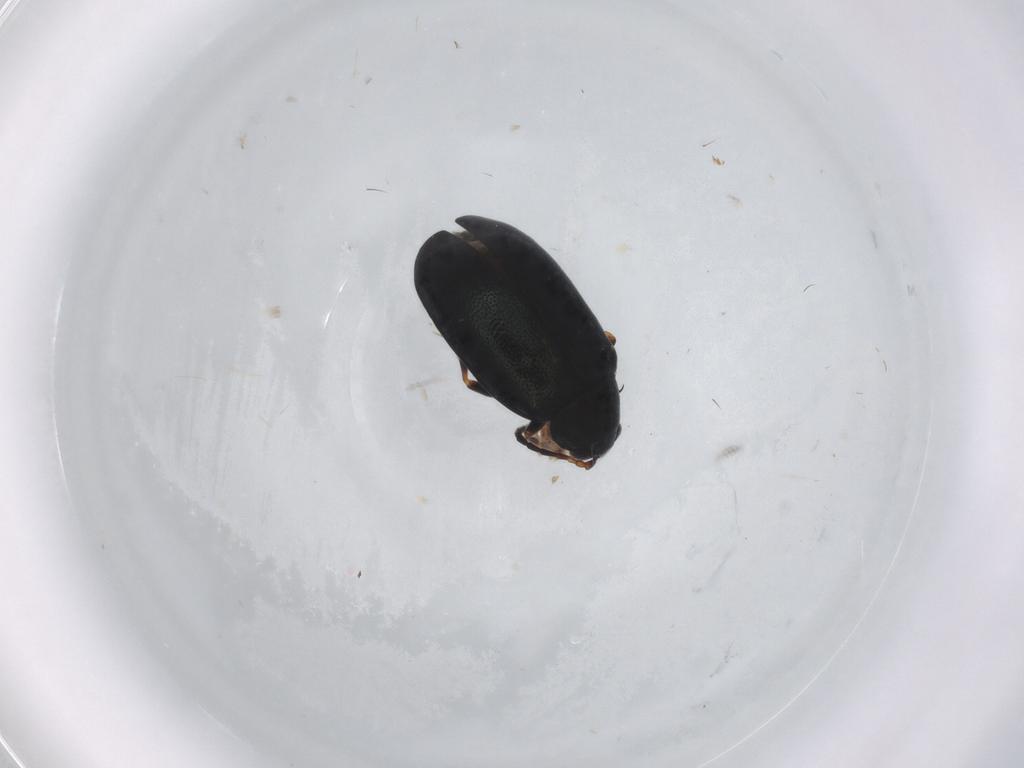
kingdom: Animalia
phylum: Arthropoda
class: Insecta
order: Coleoptera
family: Chrysomelidae
